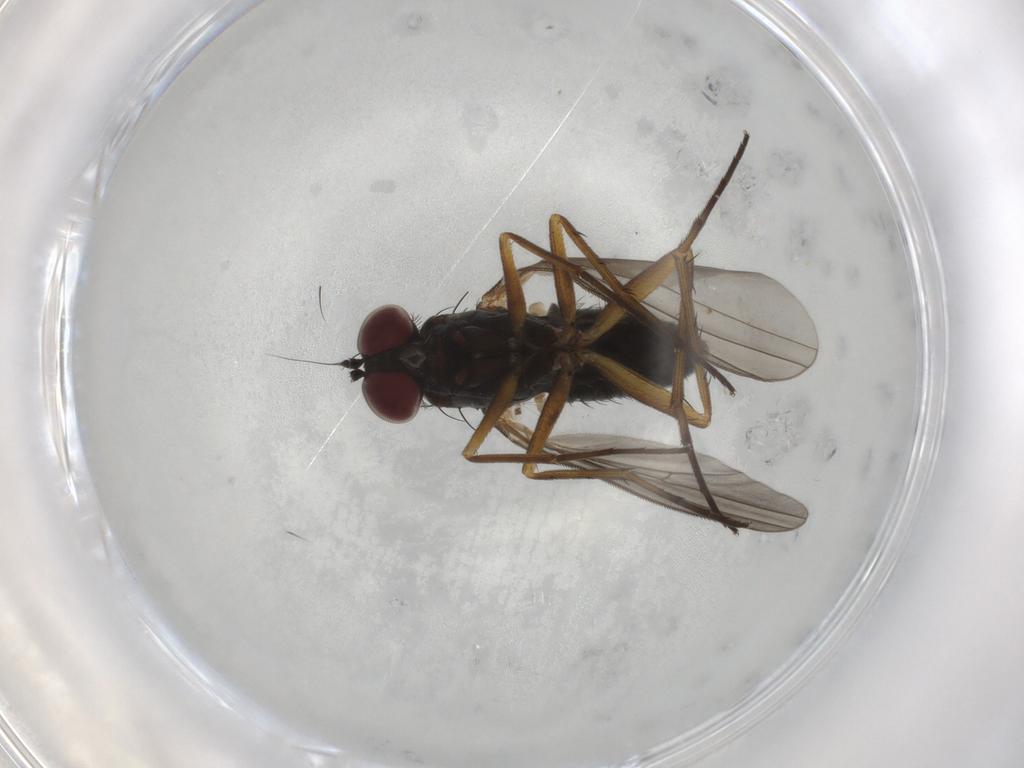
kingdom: Animalia
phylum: Arthropoda
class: Insecta
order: Diptera
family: Dolichopodidae
